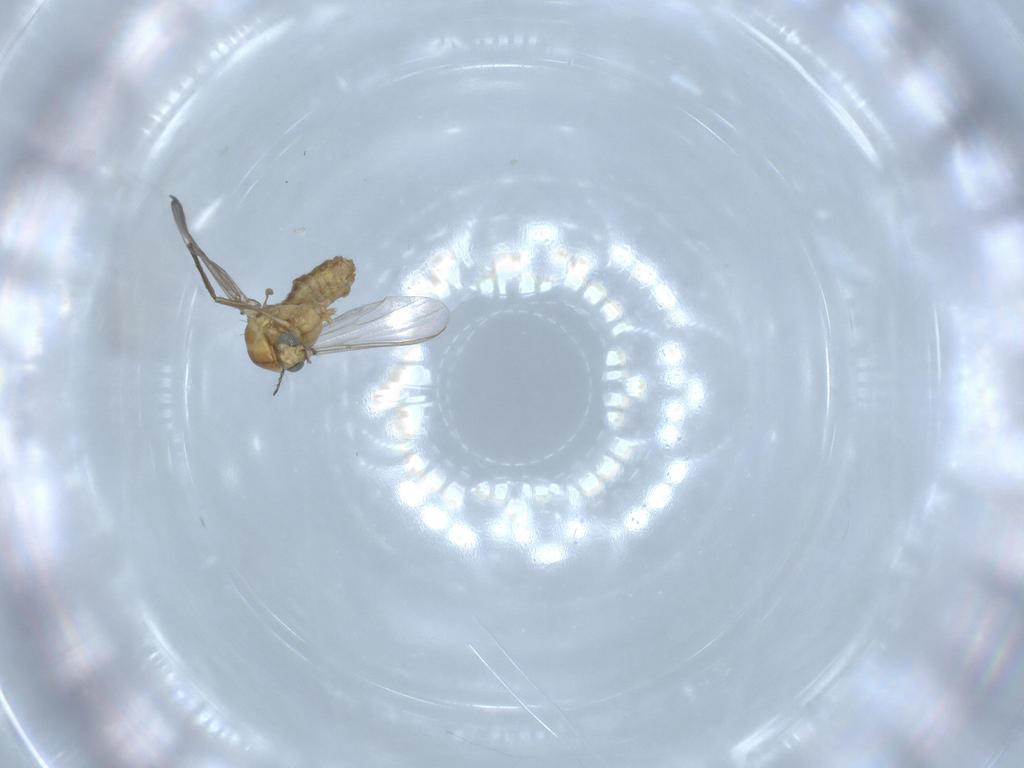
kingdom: Animalia
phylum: Arthropoda
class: Insecta
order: Diptera
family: Chironomidae
